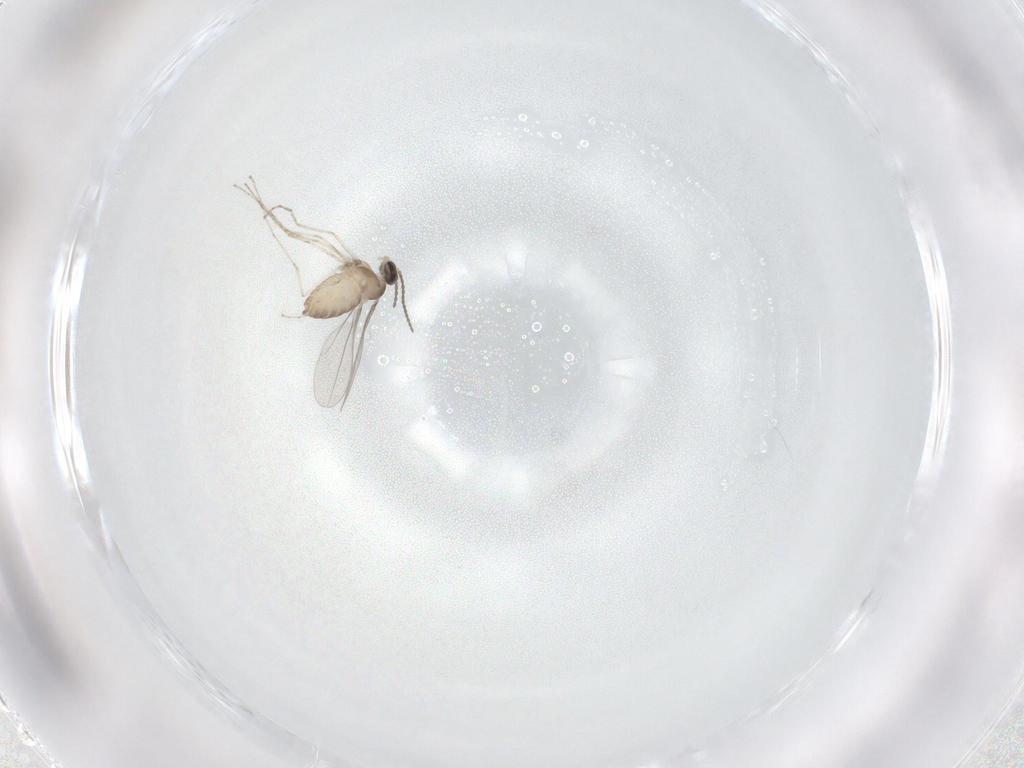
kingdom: Animalia
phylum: Arthropoda
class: Insecta
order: Diptera
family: Cecidomyiidae
